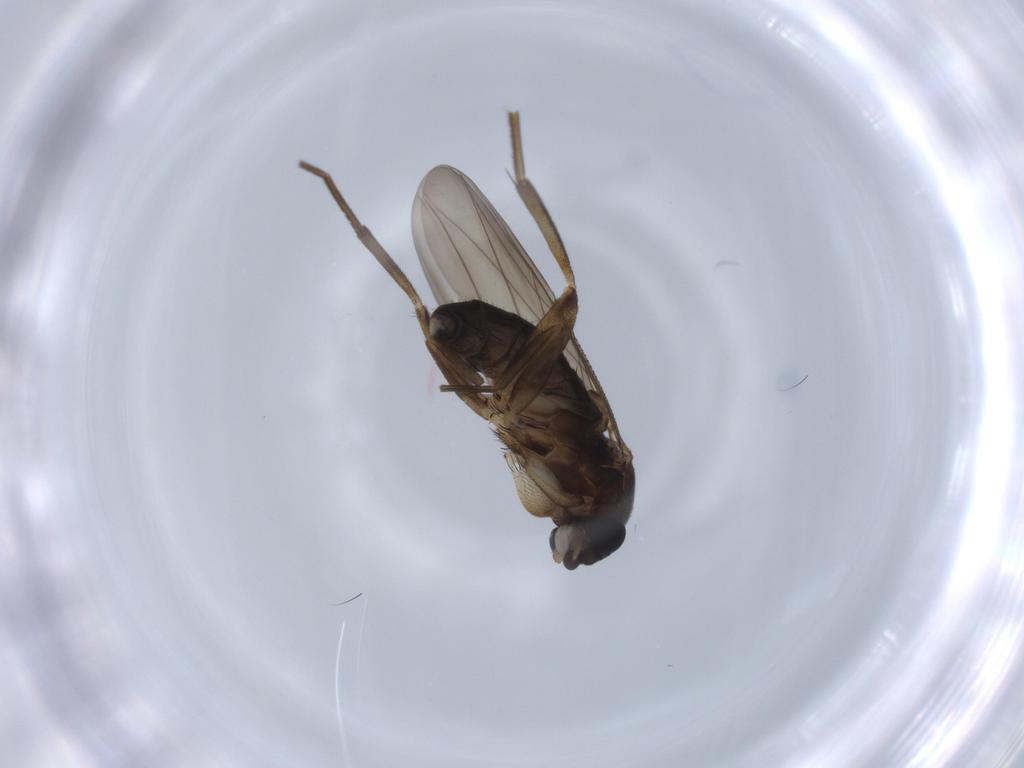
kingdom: Animalia
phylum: Arthropoda
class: Insecta
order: Diptera
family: Phoridae
